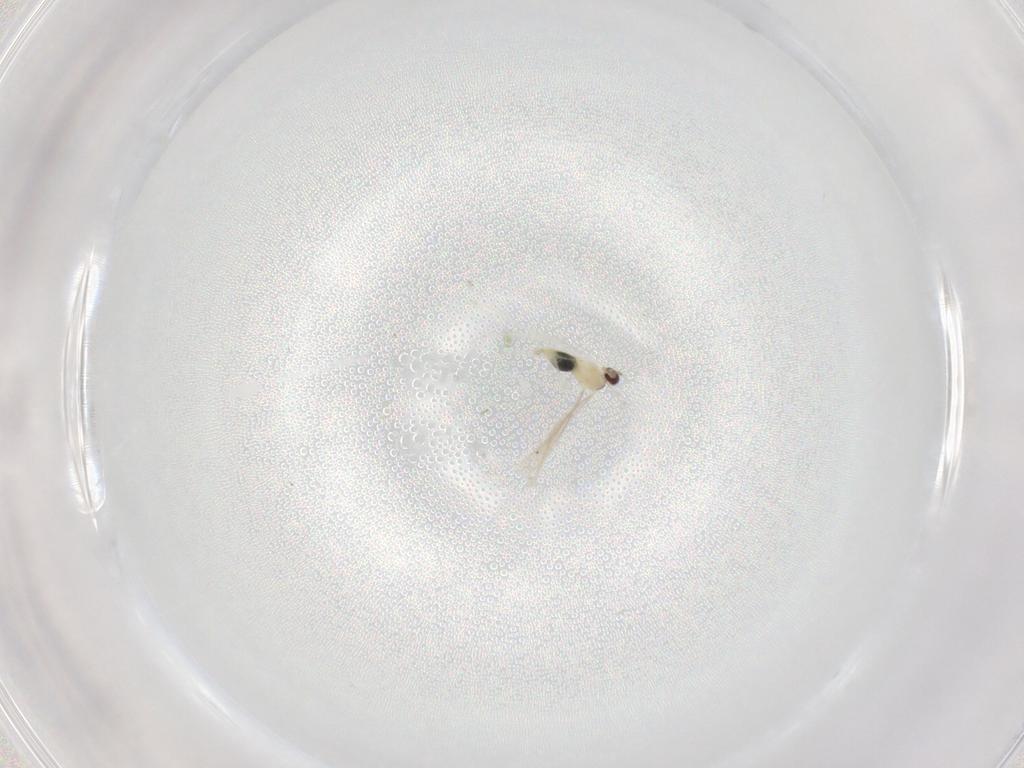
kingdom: Animalia
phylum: Arthropoda
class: Insecta
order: Diptera
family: Cecidomyiidae
